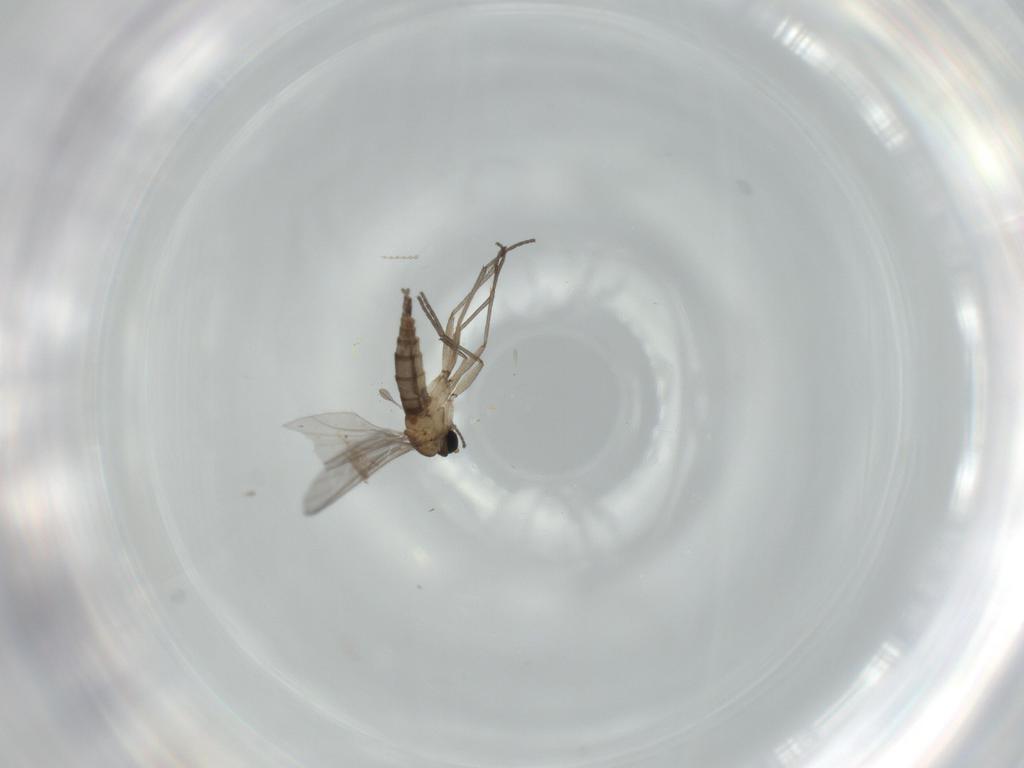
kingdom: Animalia
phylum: Arthropoda
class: Insecta
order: Diptera
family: Sciaridae
